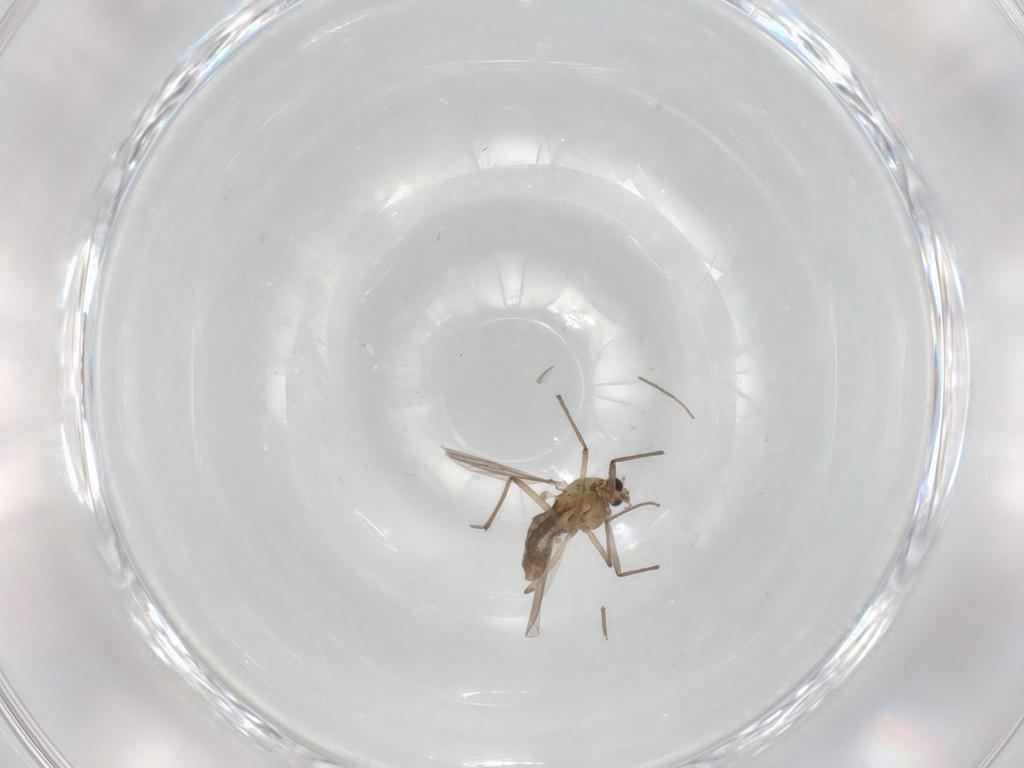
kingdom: Animalia
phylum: Arthropoda
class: Insecta
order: Diptera
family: Chironomidae
